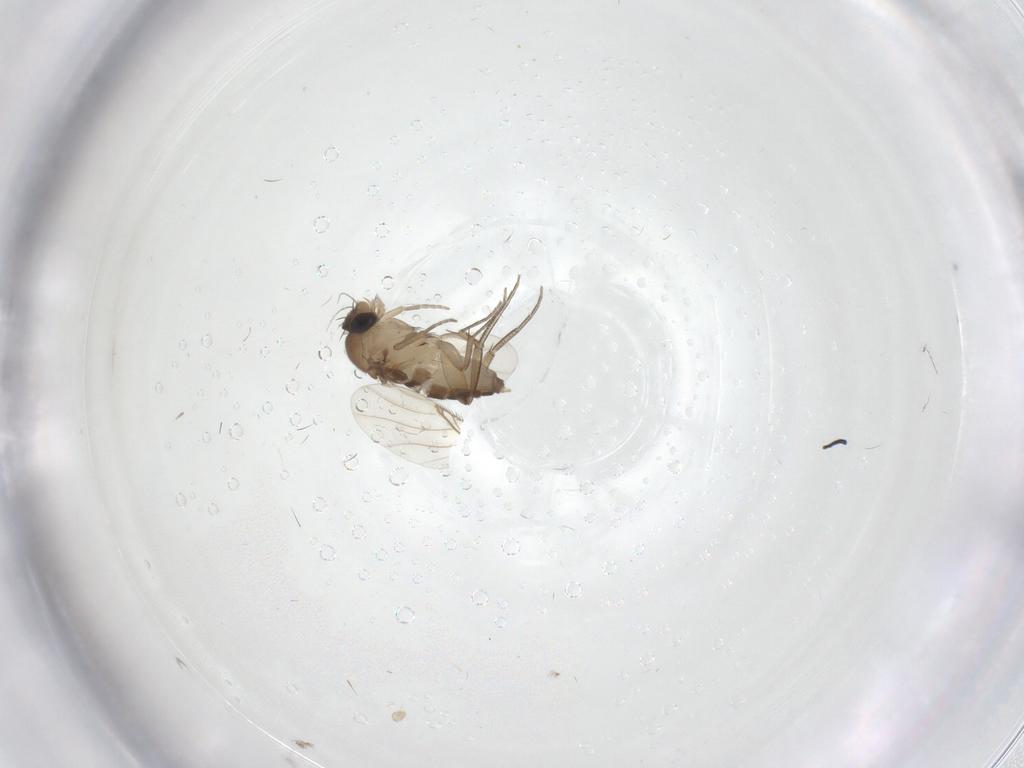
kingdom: Animalia
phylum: Arthropoda
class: Insecta
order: Diptera
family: Phoridae
